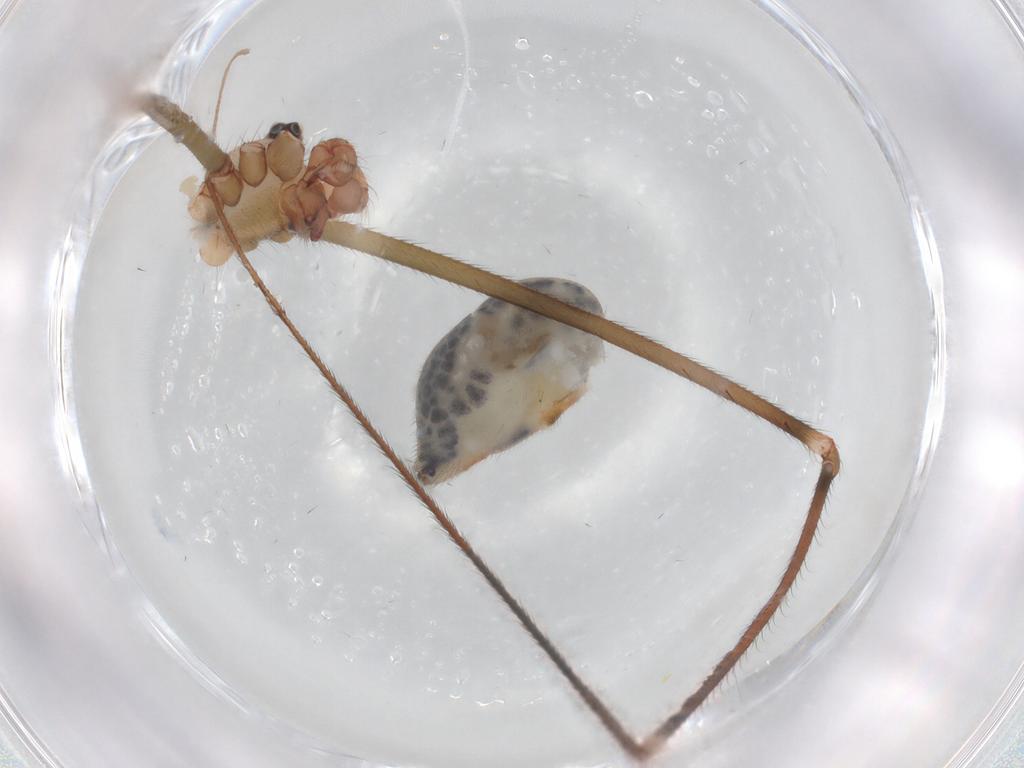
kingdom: Animalia
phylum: Arthropoda
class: Arachnida
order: Araneae
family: Pholcidae
